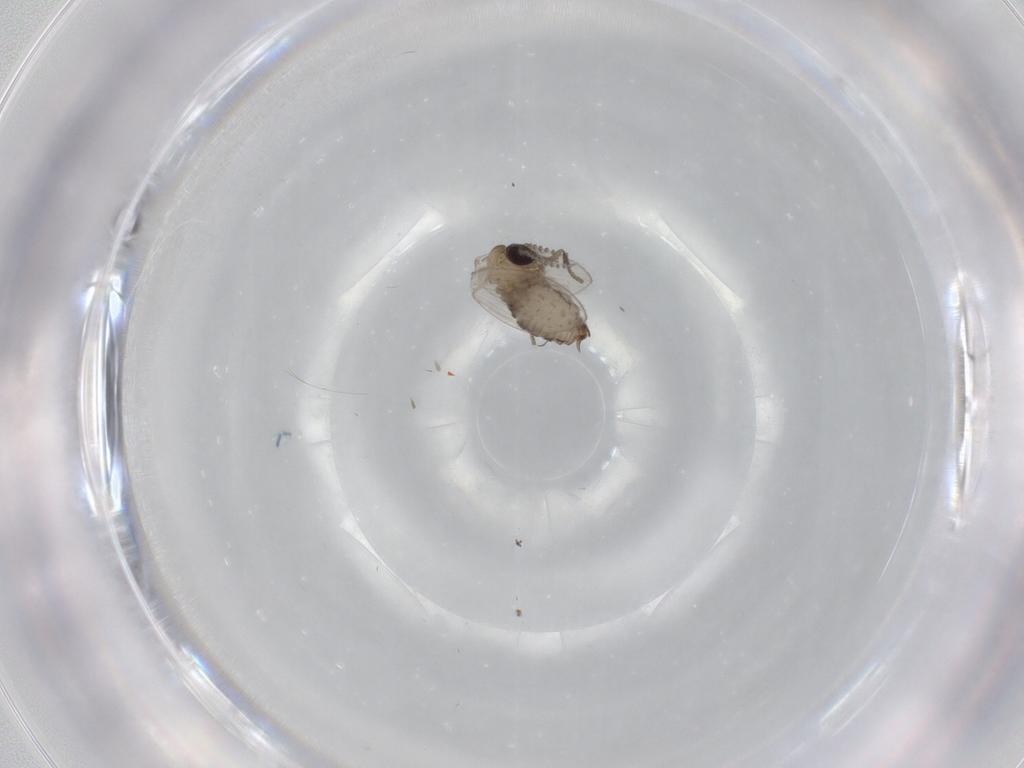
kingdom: Animalia
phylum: Arthropoda
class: Insecta
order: Diptera
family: Psychodidae
